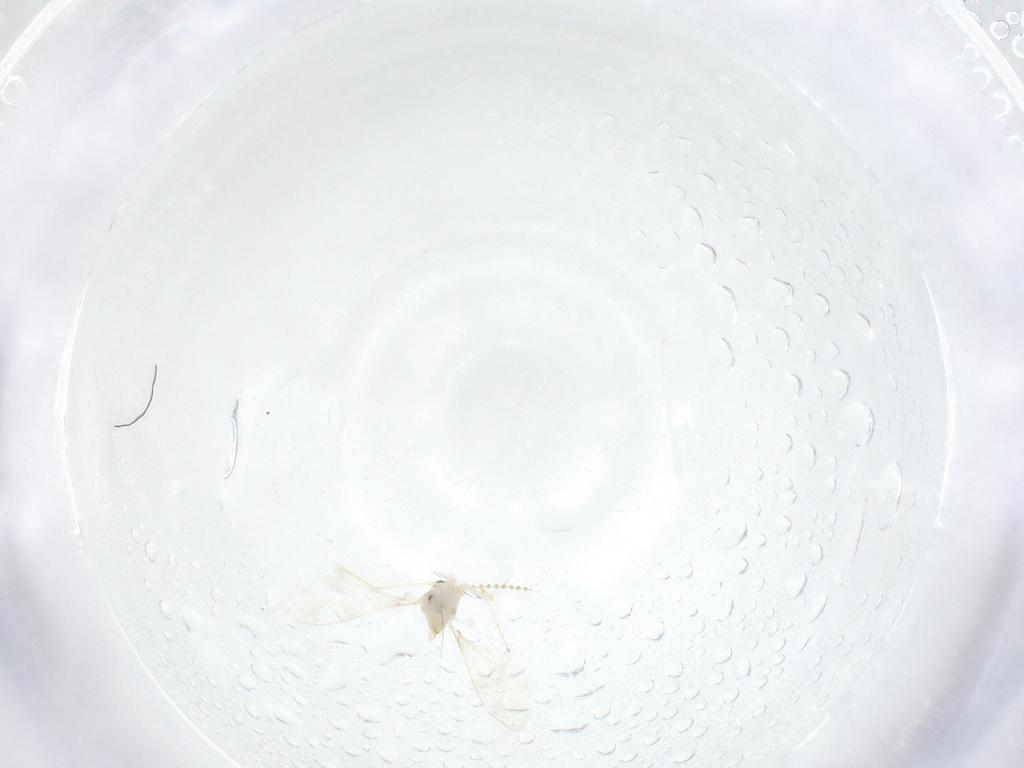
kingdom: Animalia
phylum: Arthropoda
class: Insecta
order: Diptera
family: Cecidomyiidae
